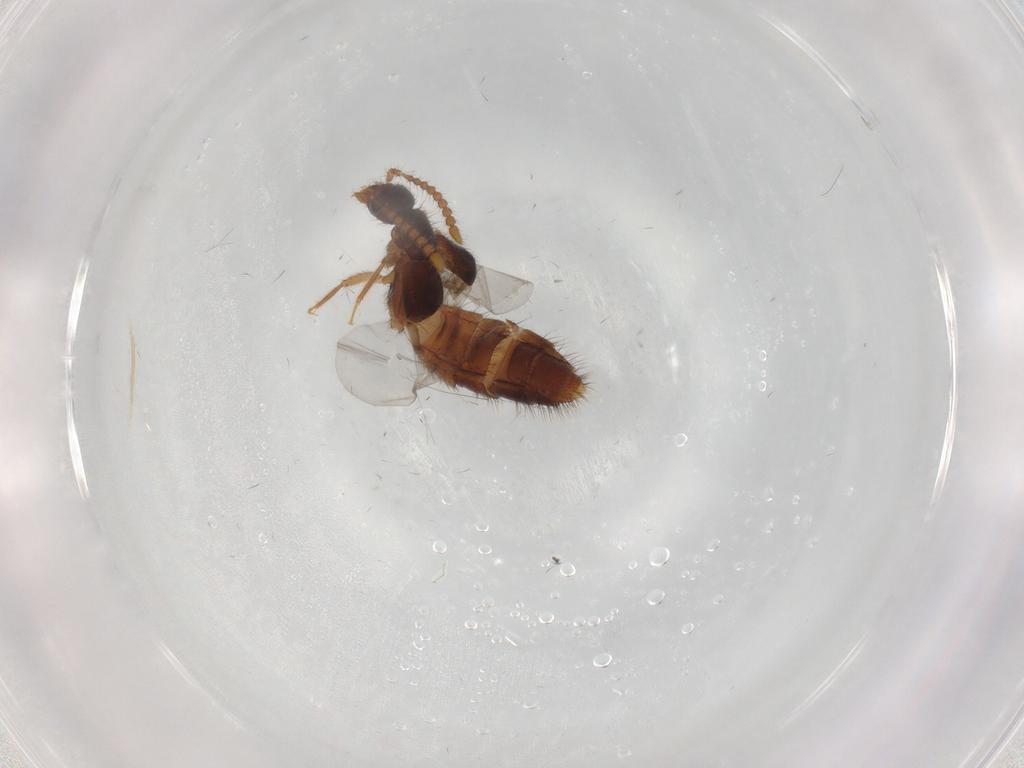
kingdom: Animalia
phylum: Arthropoda
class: Insecta
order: Coleoptera
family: Staphylinidae
